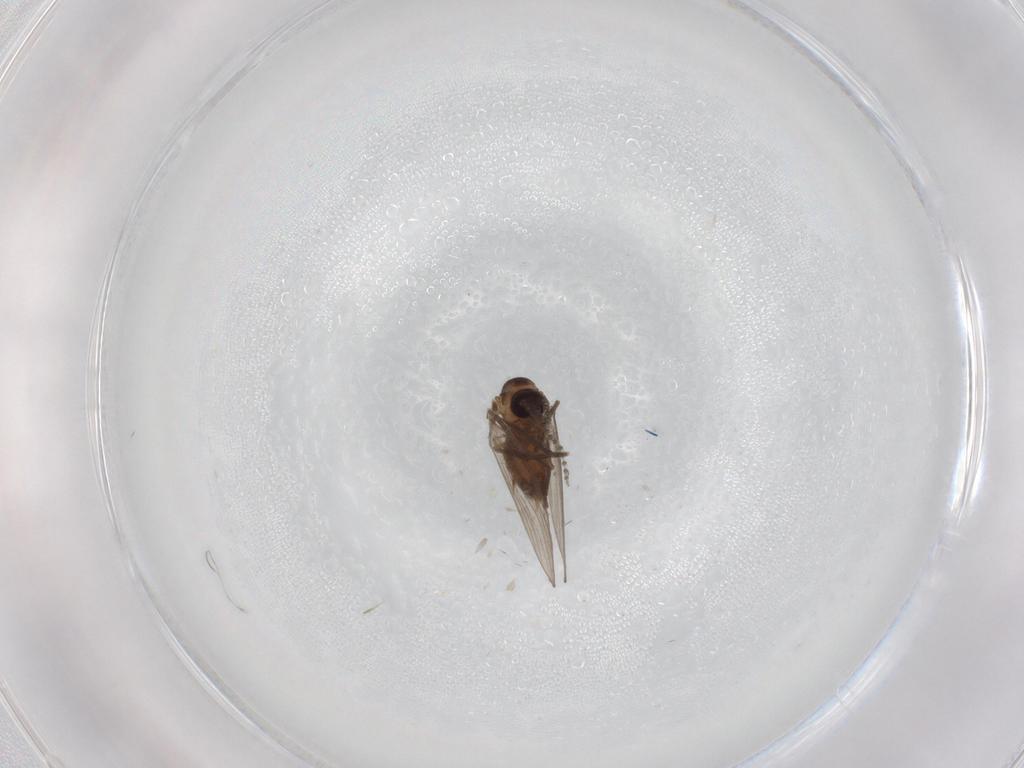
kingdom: Animalia
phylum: Arthropoda
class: Insecta
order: Diptera
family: Psychodidae
